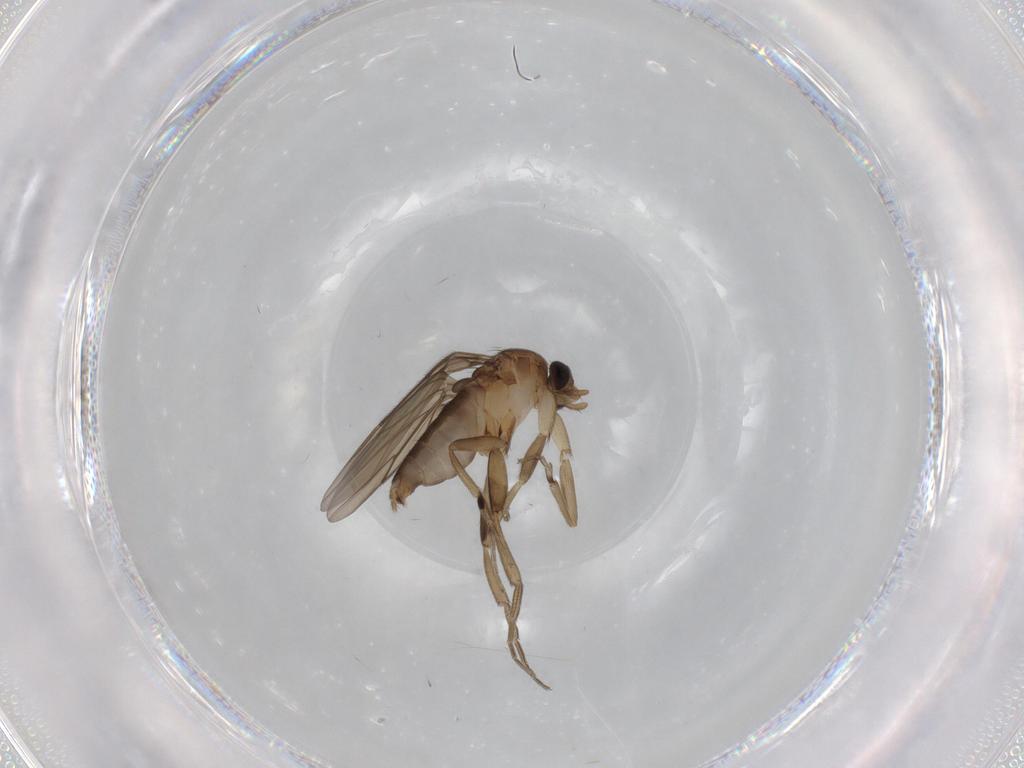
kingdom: Animalia
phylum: Arthropoda
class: Insecta
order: Diptera
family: Phoridae
